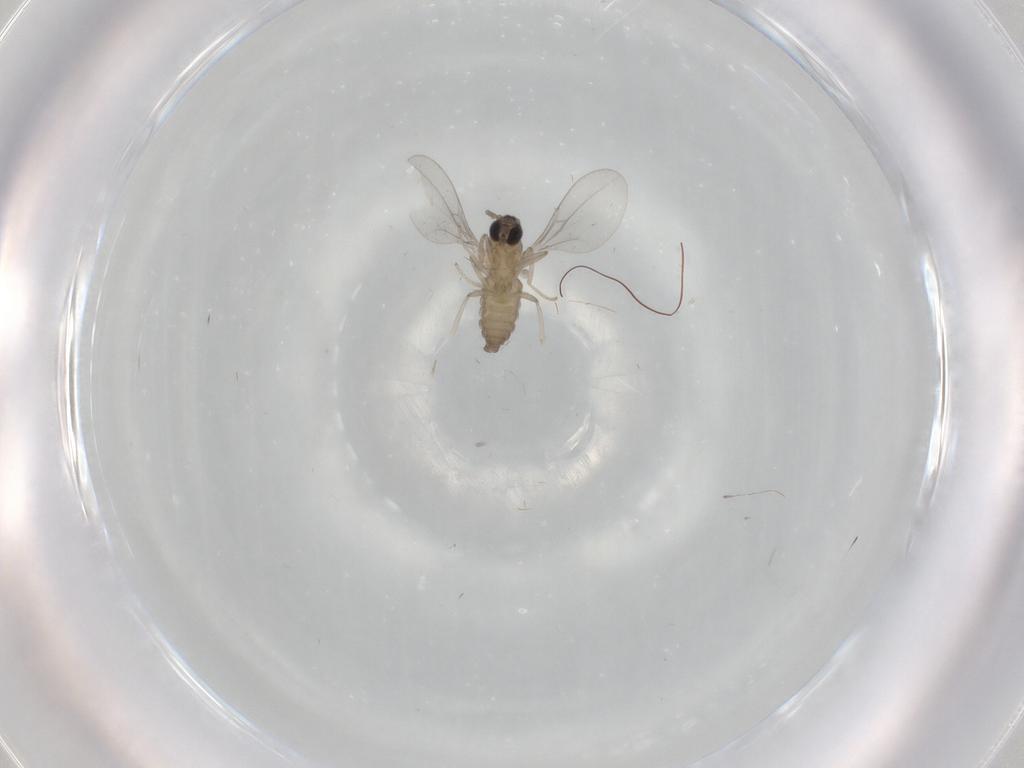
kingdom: Animalia
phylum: Arthropoda
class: Insecta
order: Diptera
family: Cecidomyiidae
